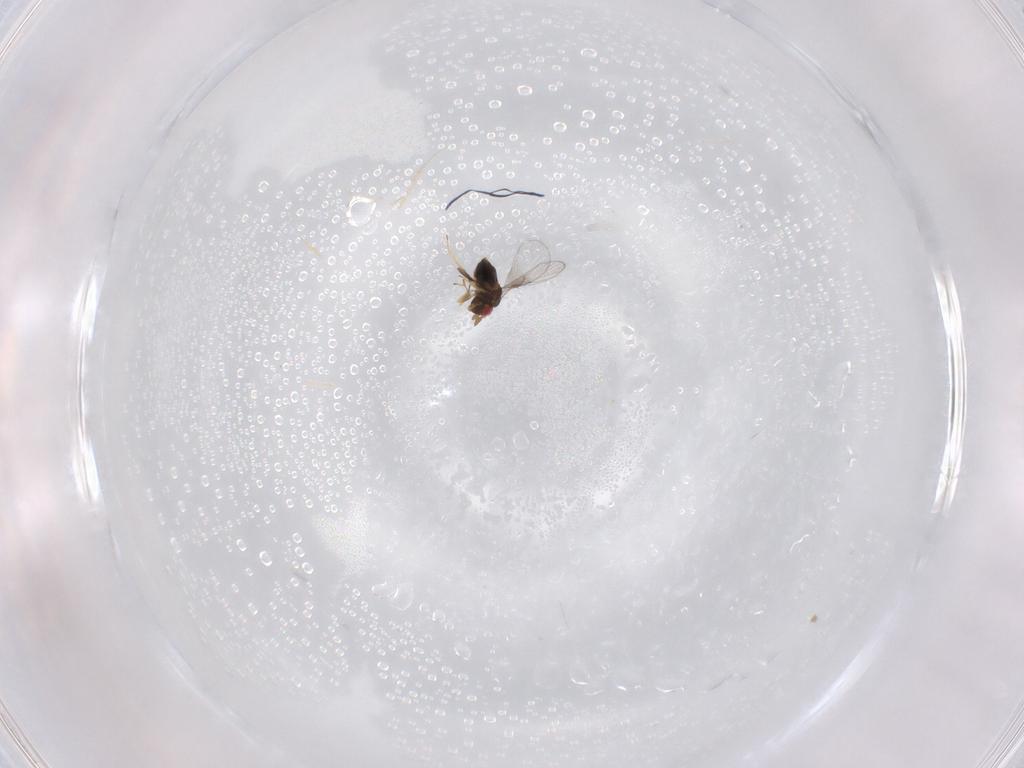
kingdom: Animalia
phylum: Arthropoda
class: Insecta
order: Hymenoptera
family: Trichogrammatidae
